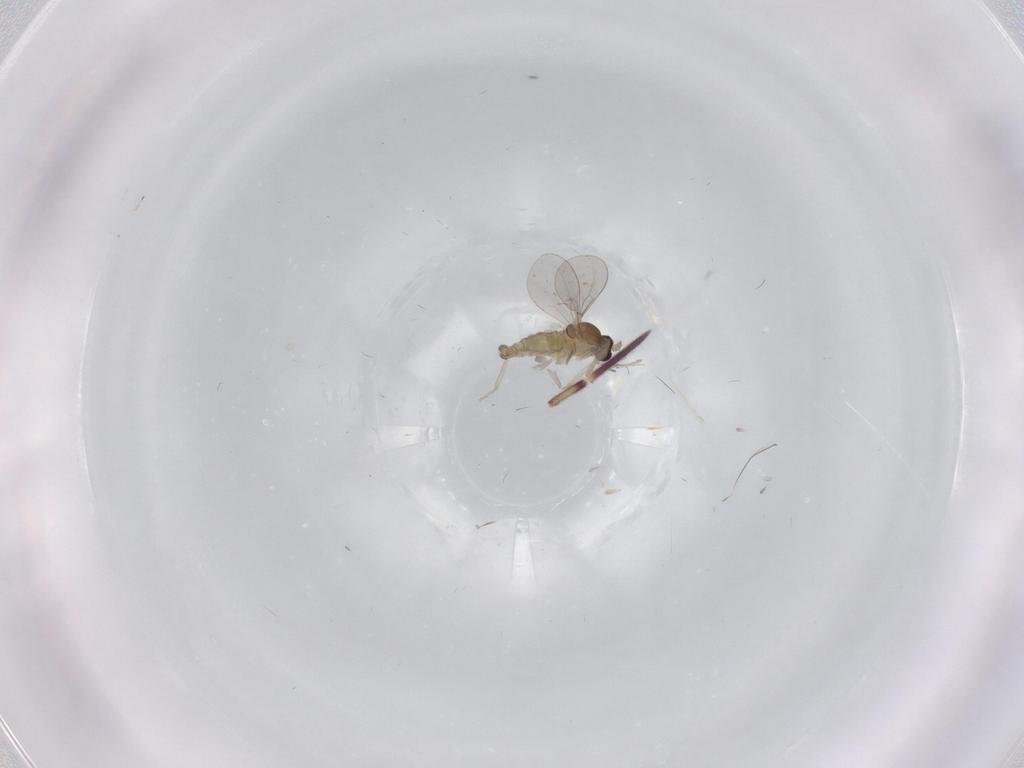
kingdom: Animalia
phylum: Arthropoda
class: Insecta
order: Diptera
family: Cecidomyiidae
